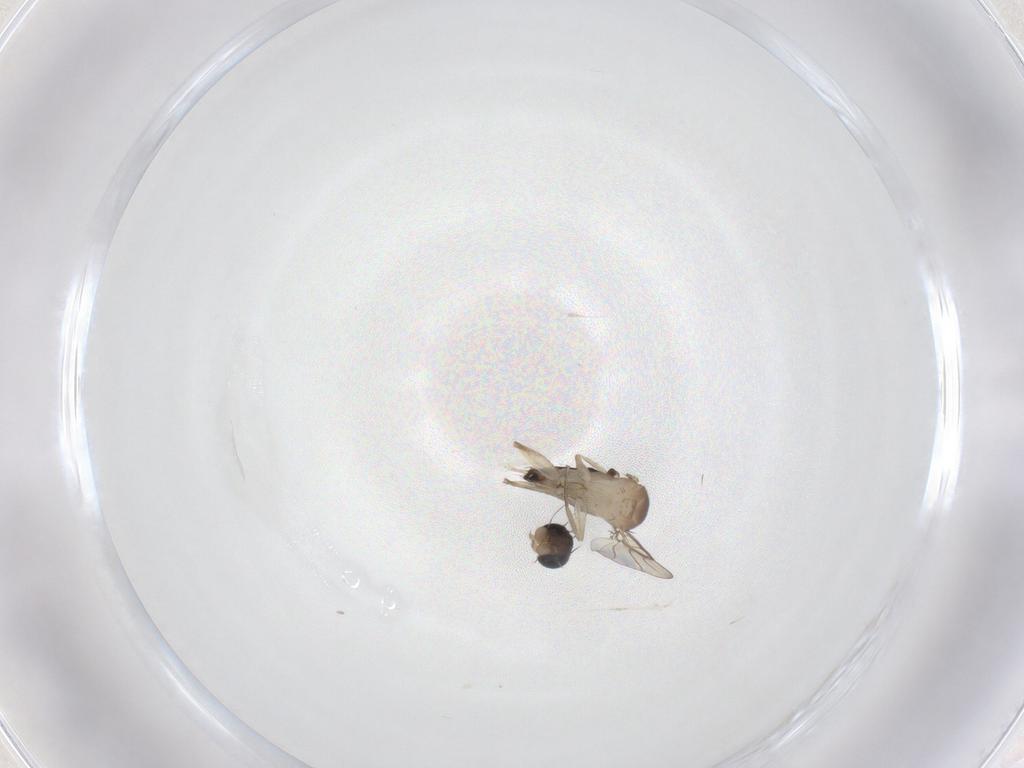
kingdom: Animalia
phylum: Arthropoda
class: Insecta
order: Diptera
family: Phoridae
